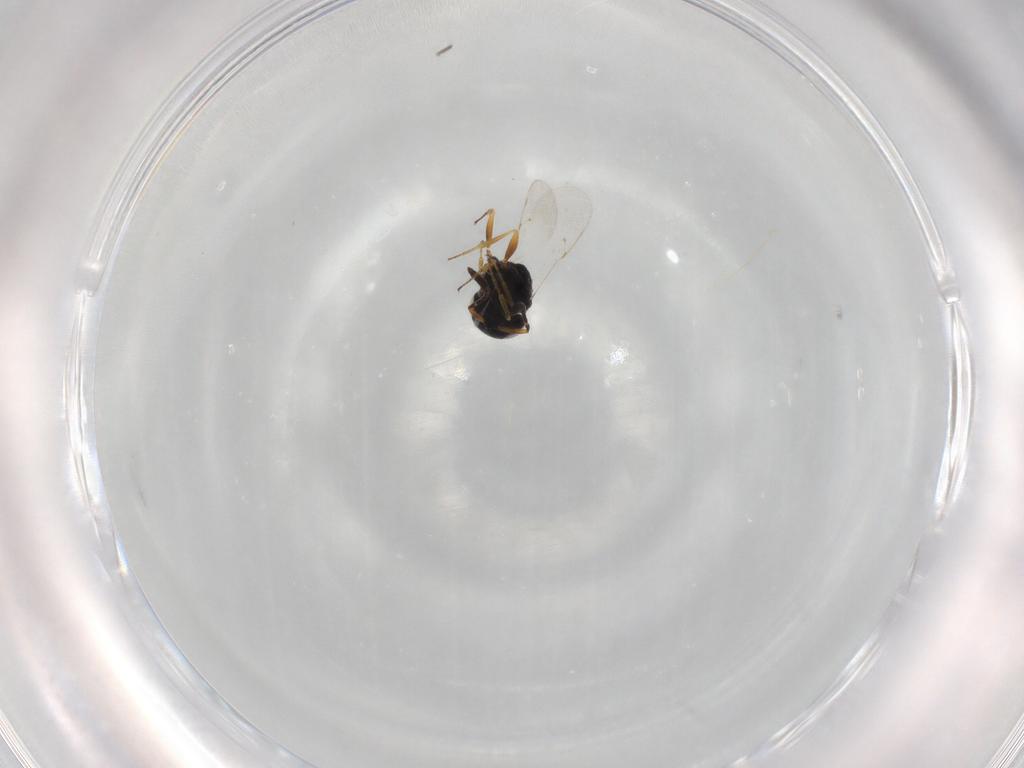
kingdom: Animalia
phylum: Arthropoda
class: Insecta
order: Hymenoptera
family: Scelionidae
